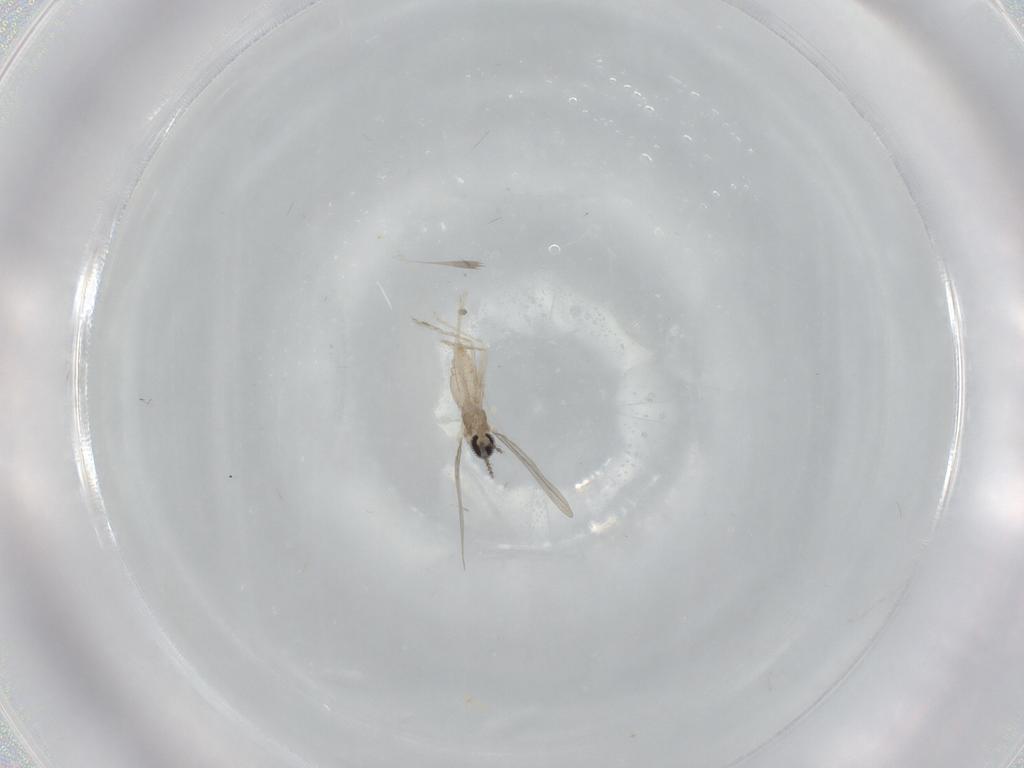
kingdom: Animalia
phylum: Arthropoda
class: Insecta
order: Diptera
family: Cecidomyiidae
